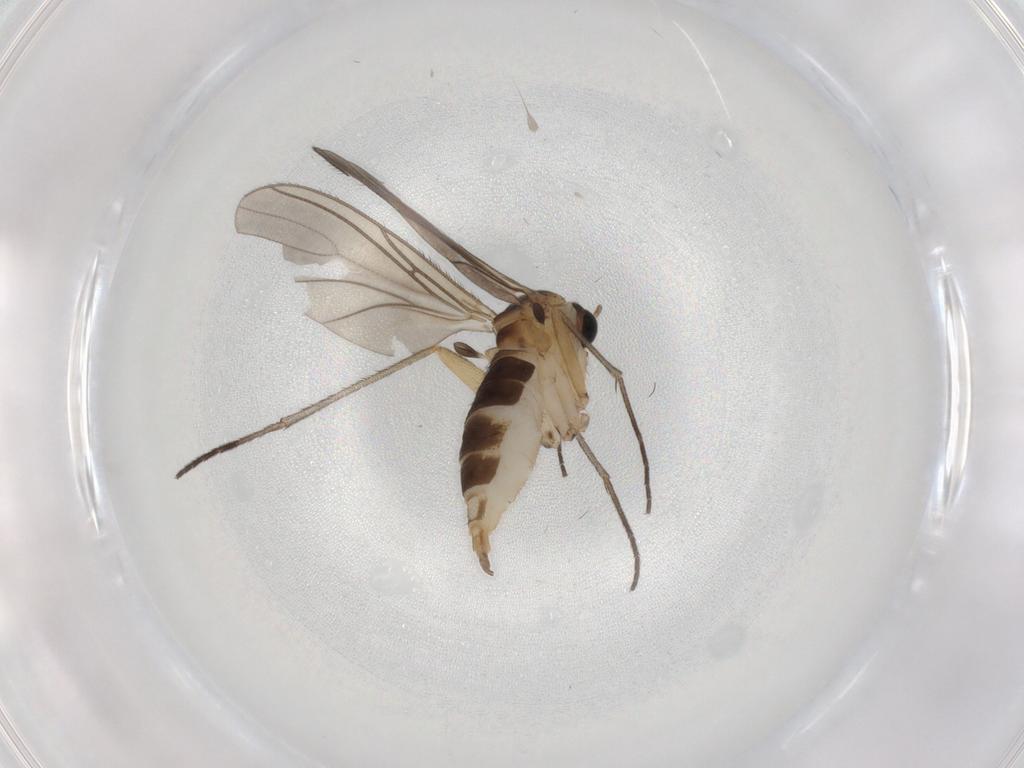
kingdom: Animalia
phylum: Arthropoda
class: Insecta
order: Diptera
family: Sciaridae
